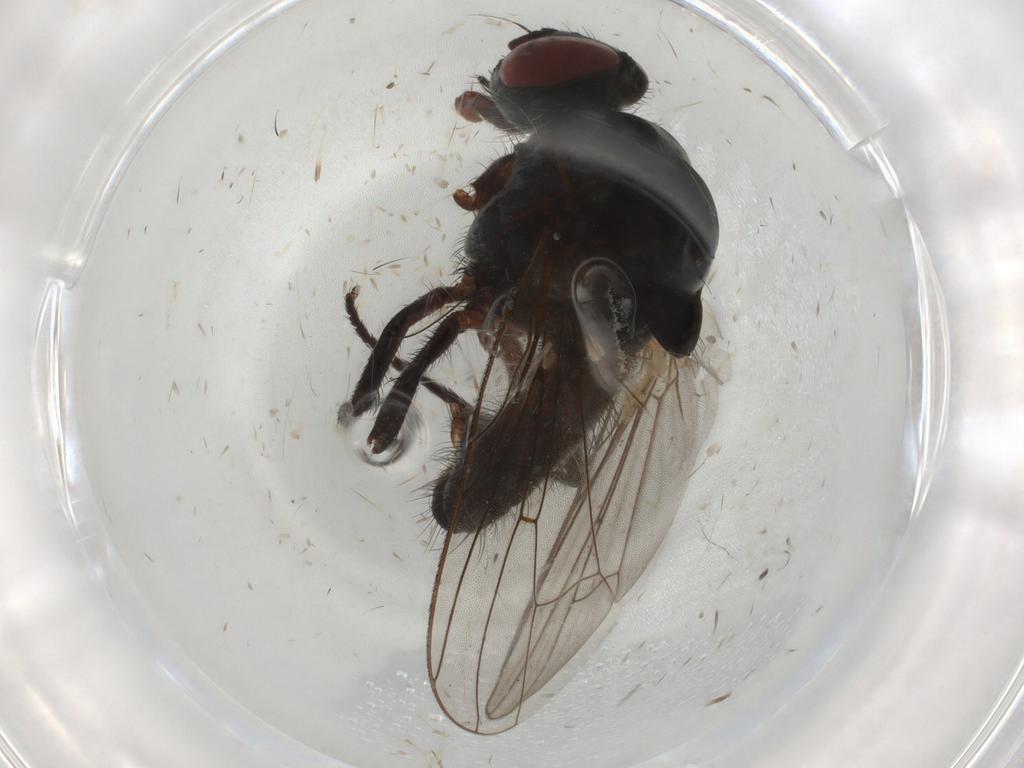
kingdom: Animalia
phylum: Arthropoda
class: Insecta
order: Diptera
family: Anthomyiidae
